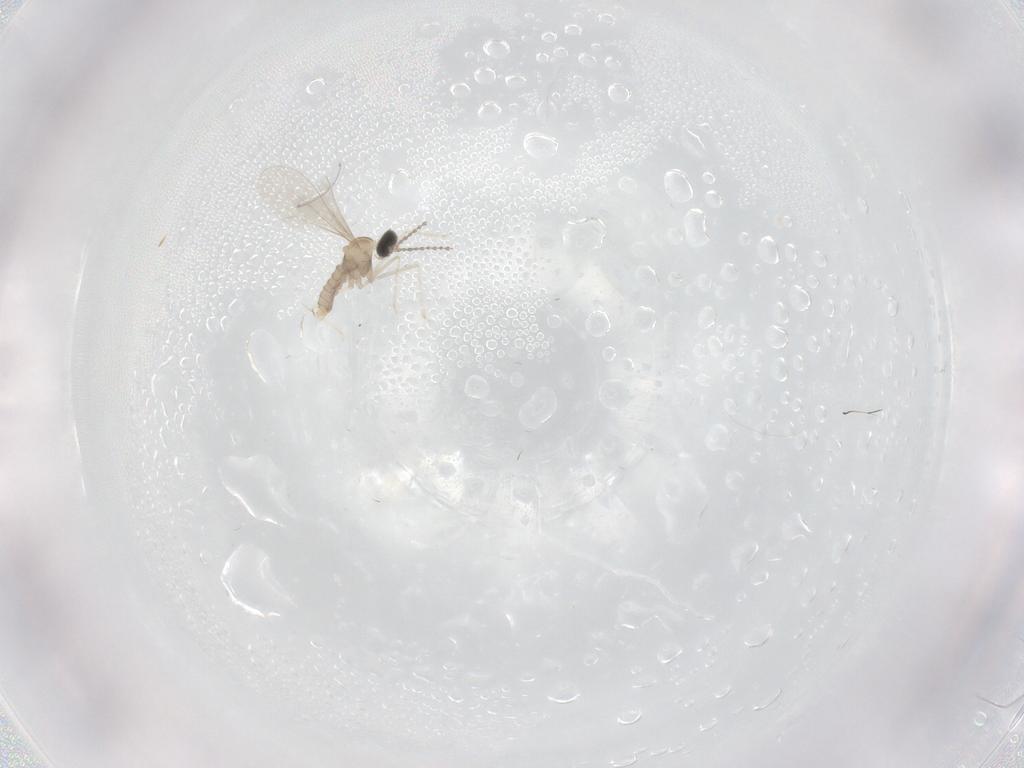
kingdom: Animalia
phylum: Arthropoda
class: Insecta
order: Diptera
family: Cecidomyiidae
